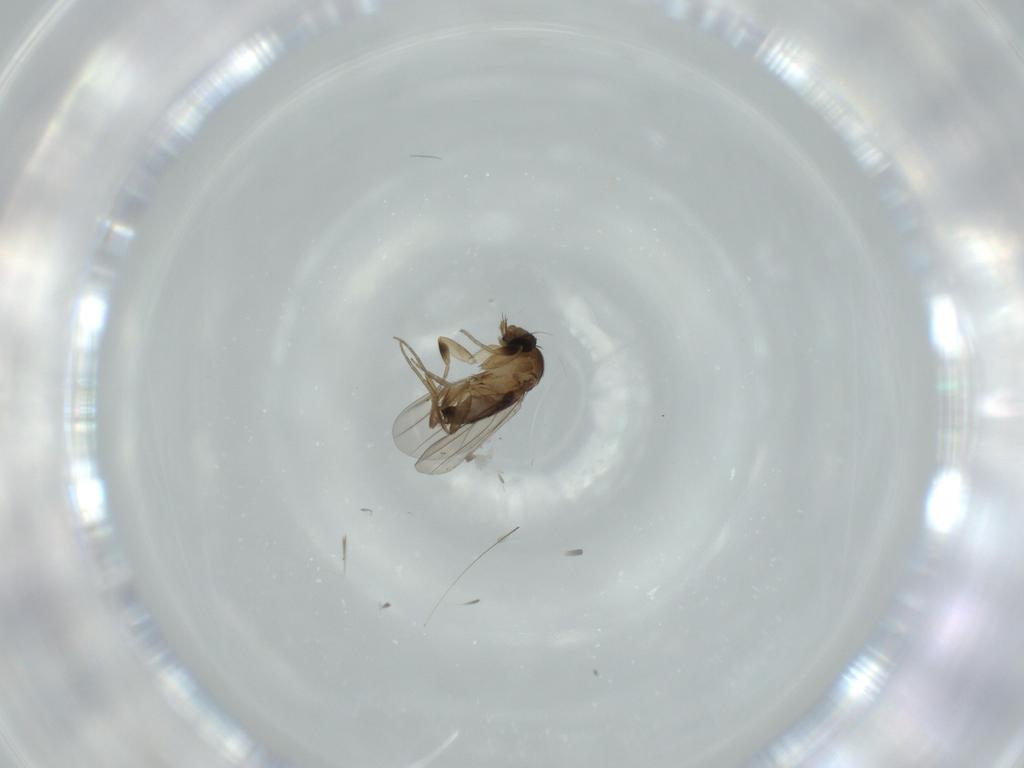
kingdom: Animalia
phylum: Arthropoda
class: Insecta
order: Diptera
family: Phoridae
